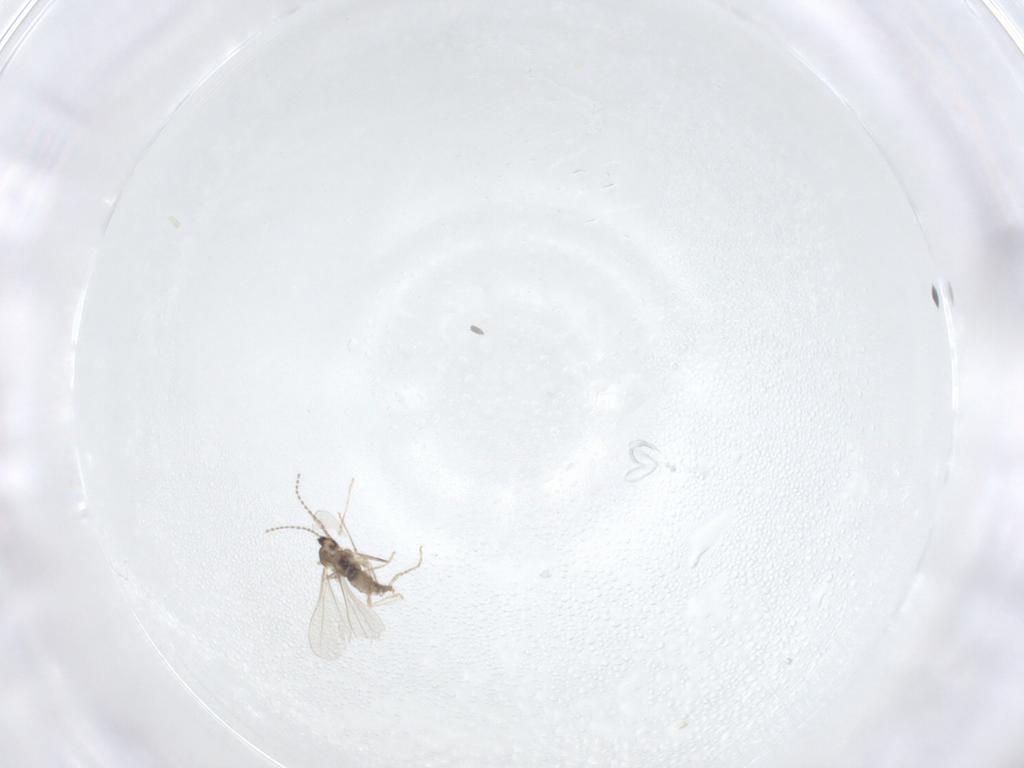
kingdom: Animalia
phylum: Arthropoda
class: Insecta
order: Diptera
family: Cecidomyiidae
